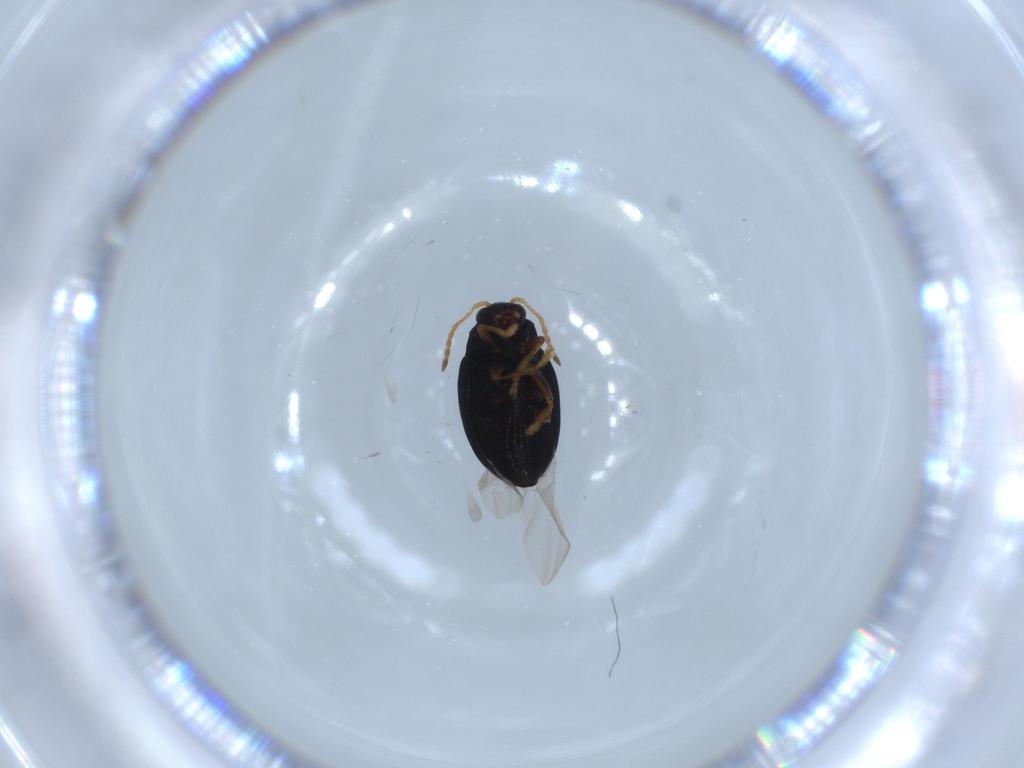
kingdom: Animalia
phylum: Arthropoda
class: Insecta
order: Coleoptera
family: Chrysomelidae
